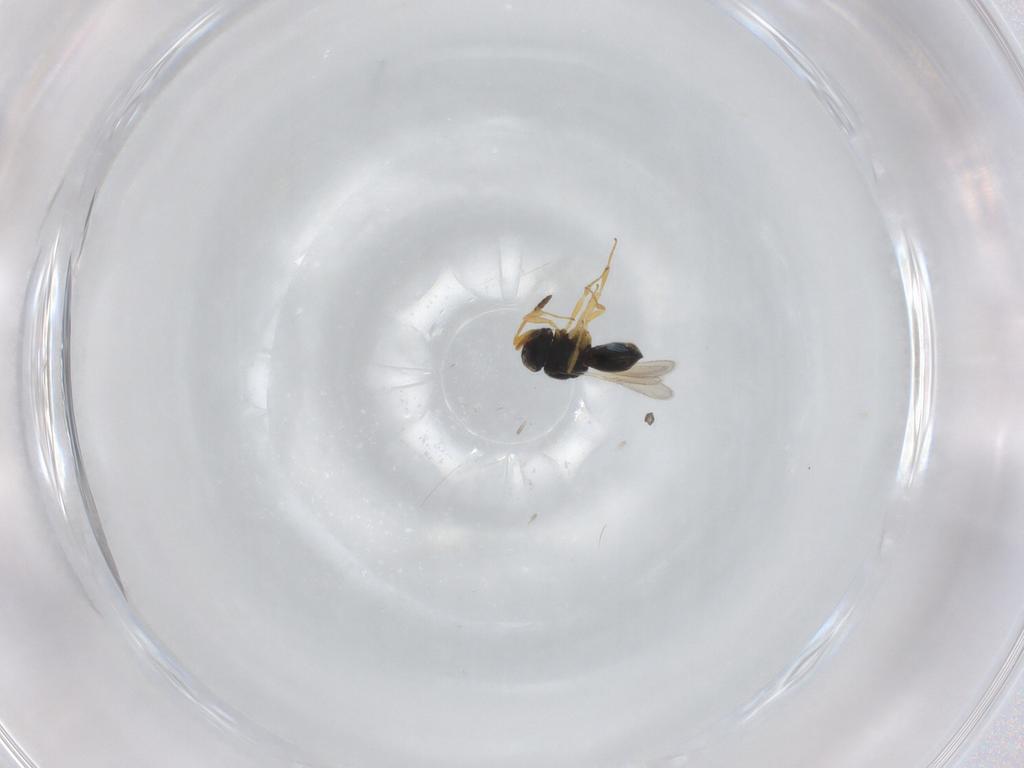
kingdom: Animalia
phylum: Arthropoda
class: Insecta
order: Hymenoptera
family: Scelionidae
